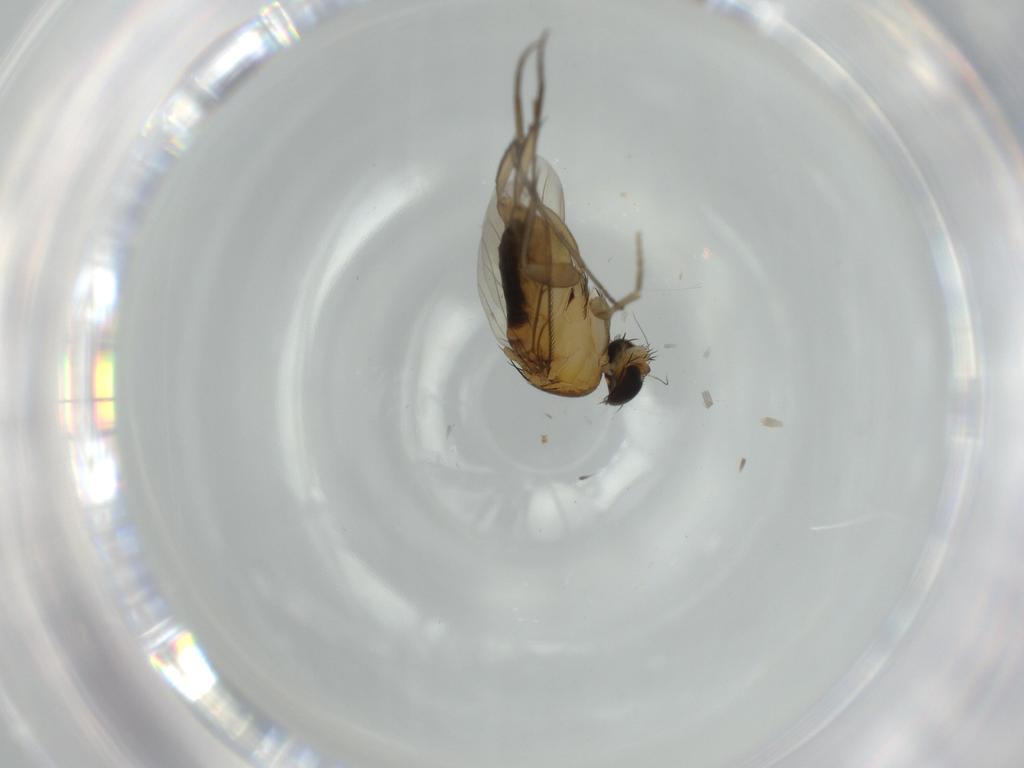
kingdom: Animalia
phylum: Arthropoda
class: Insecta
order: Diptera
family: Phoridae
